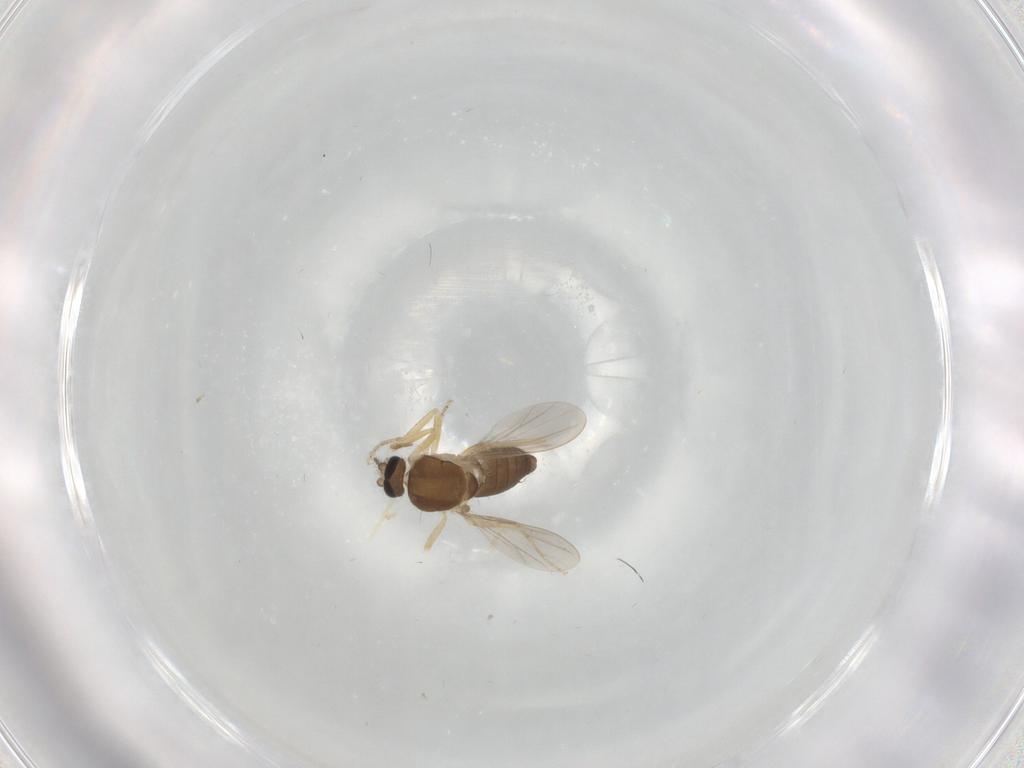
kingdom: Animalia
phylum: Arthropoda
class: Insecta
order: Diptera
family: Ceratopogonidae
